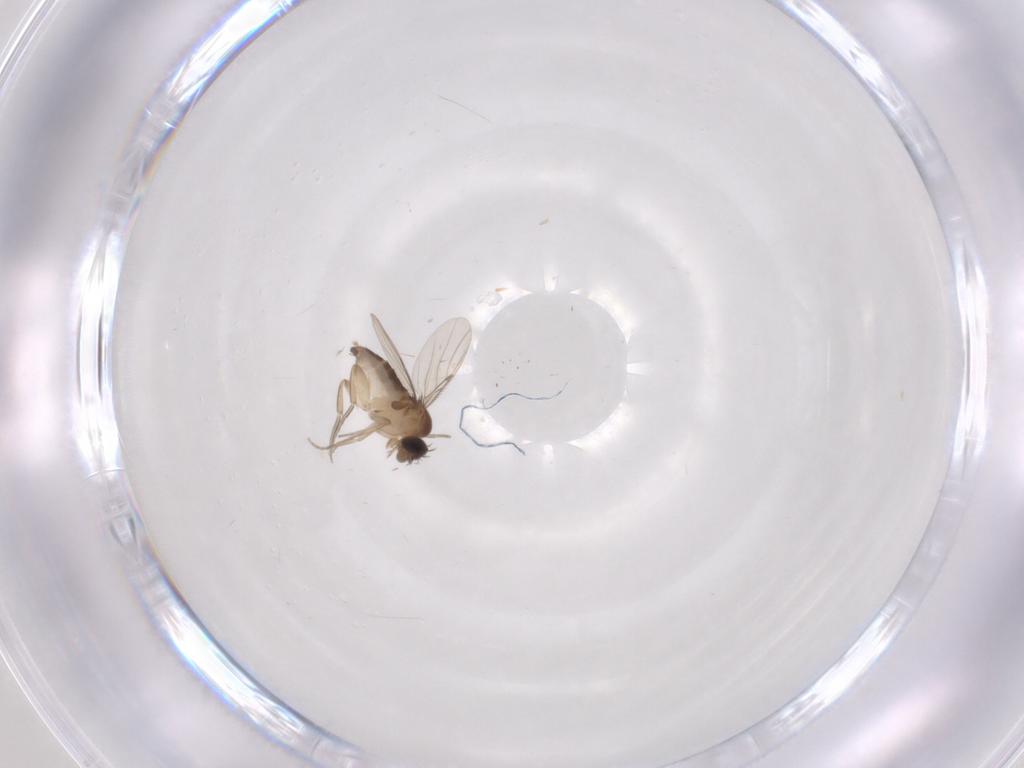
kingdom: Animalia
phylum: Arthropoda
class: Insecta
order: Diptera
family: Phoridae
